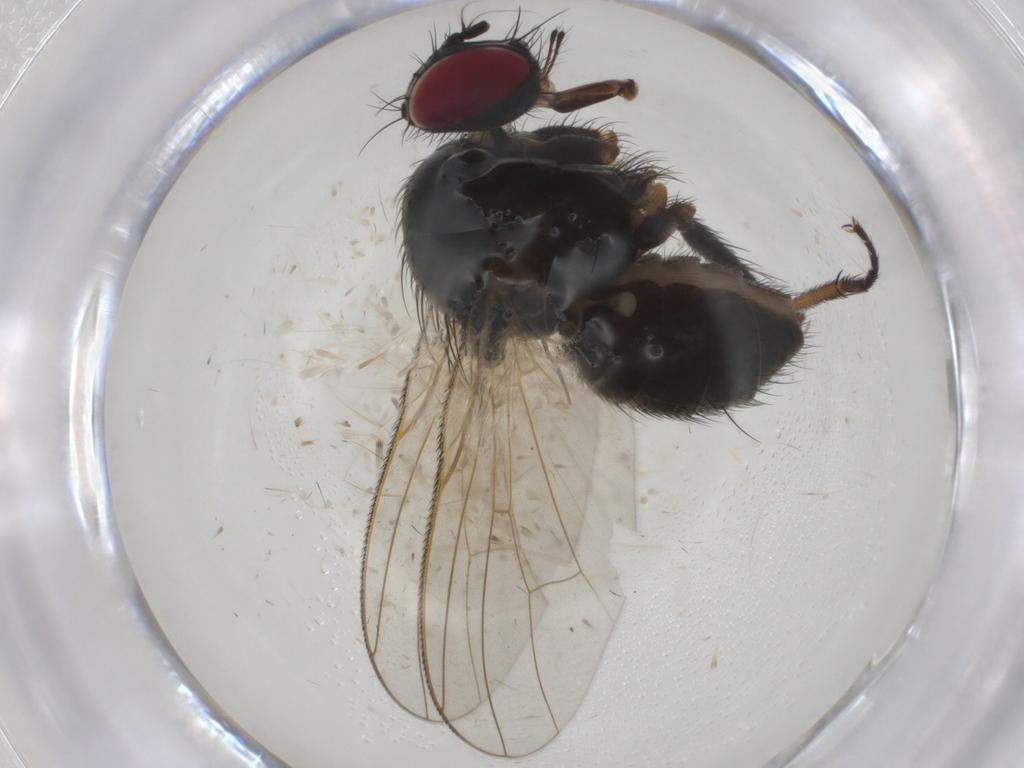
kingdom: Animalia
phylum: Arthropoda
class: Insecta
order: Diptera
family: Muscidae
